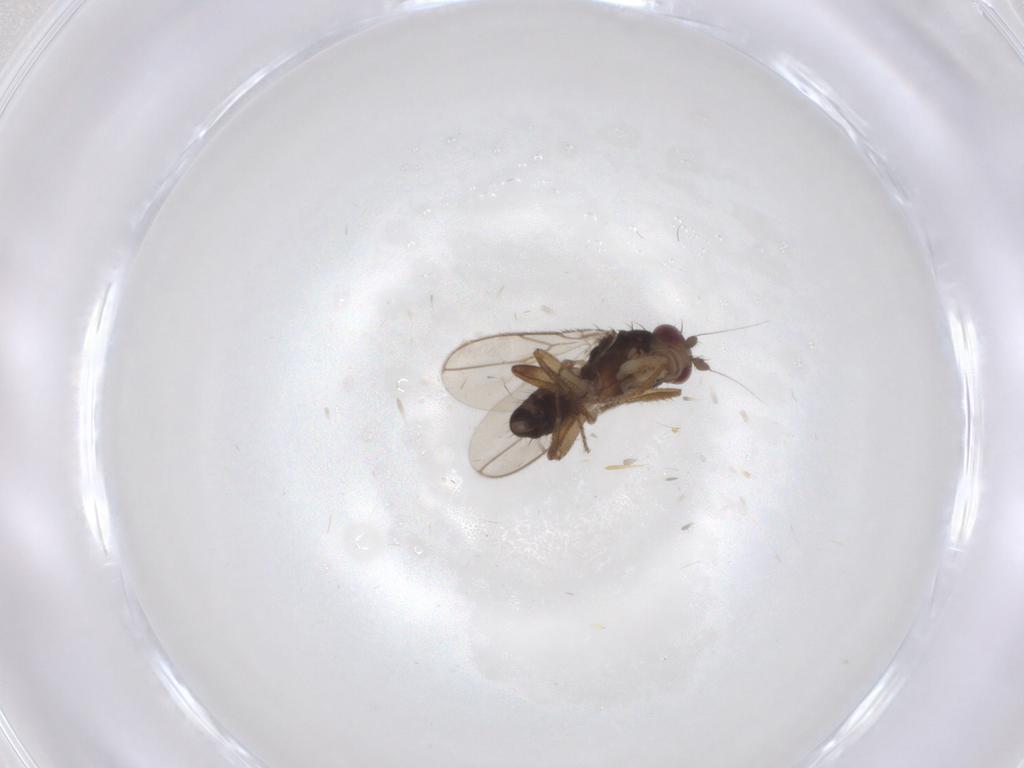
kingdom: Animalia
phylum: Arthropoda
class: Insecta
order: Diptera
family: Sphaeroceridae
